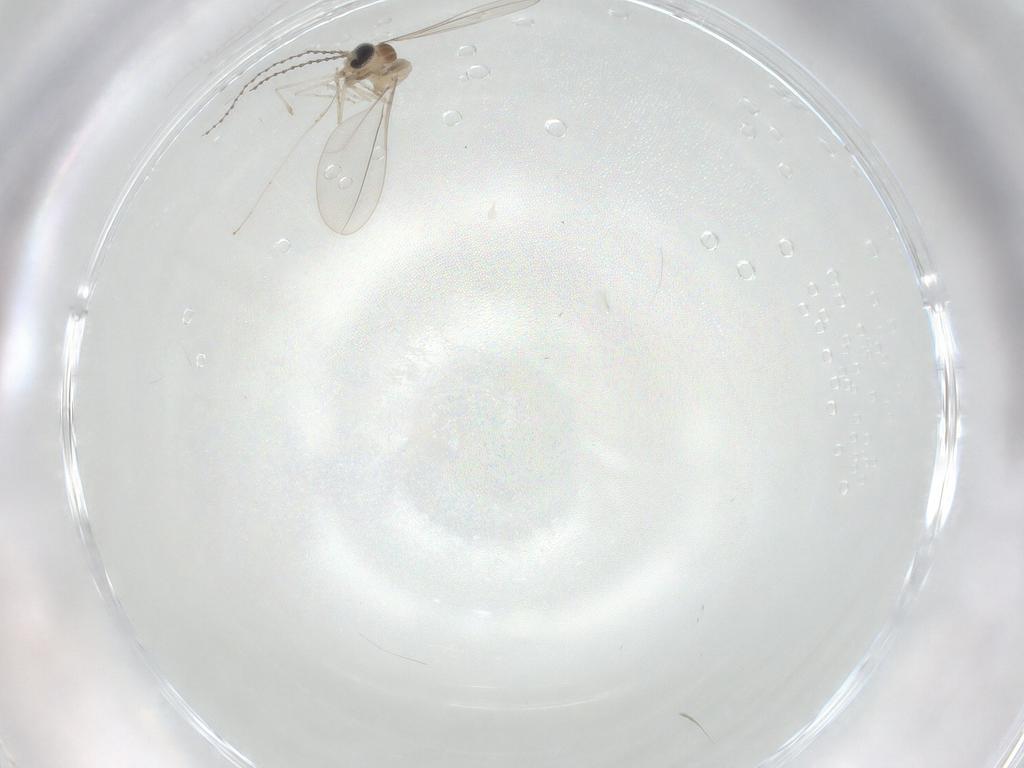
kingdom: Animalia
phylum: Arthropoda
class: Insecta
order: Diptera
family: Cecidomyiidae
